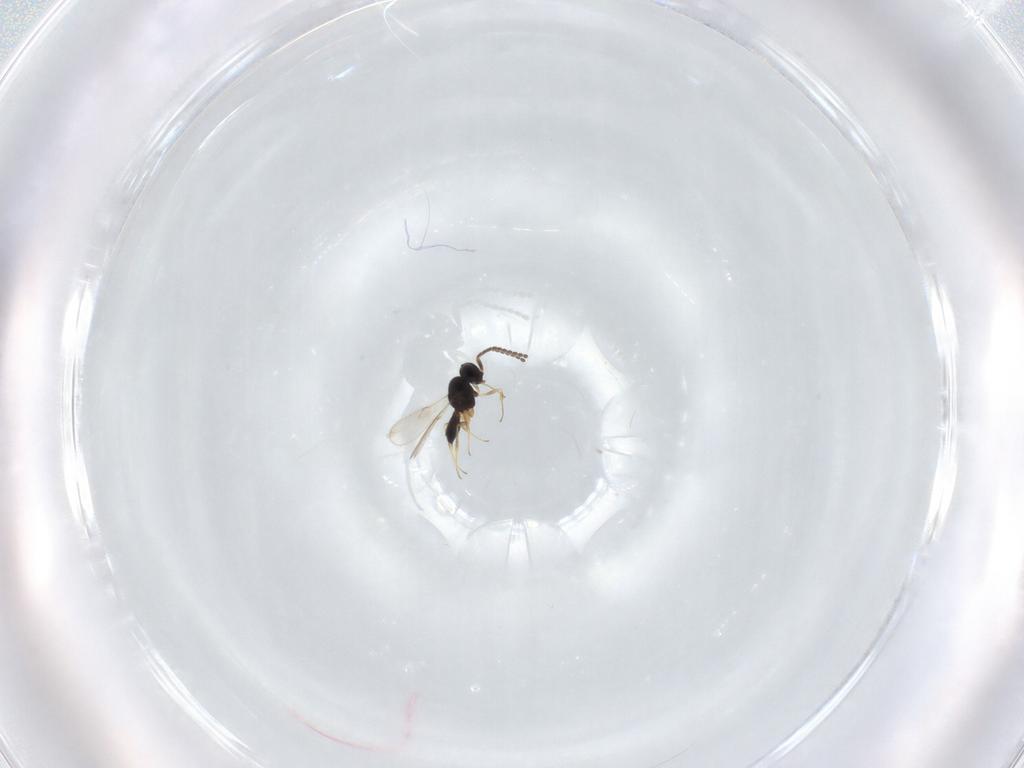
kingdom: Animalia
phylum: Arthropoda
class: Insecta
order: Hymenoptera
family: Scelionidae
